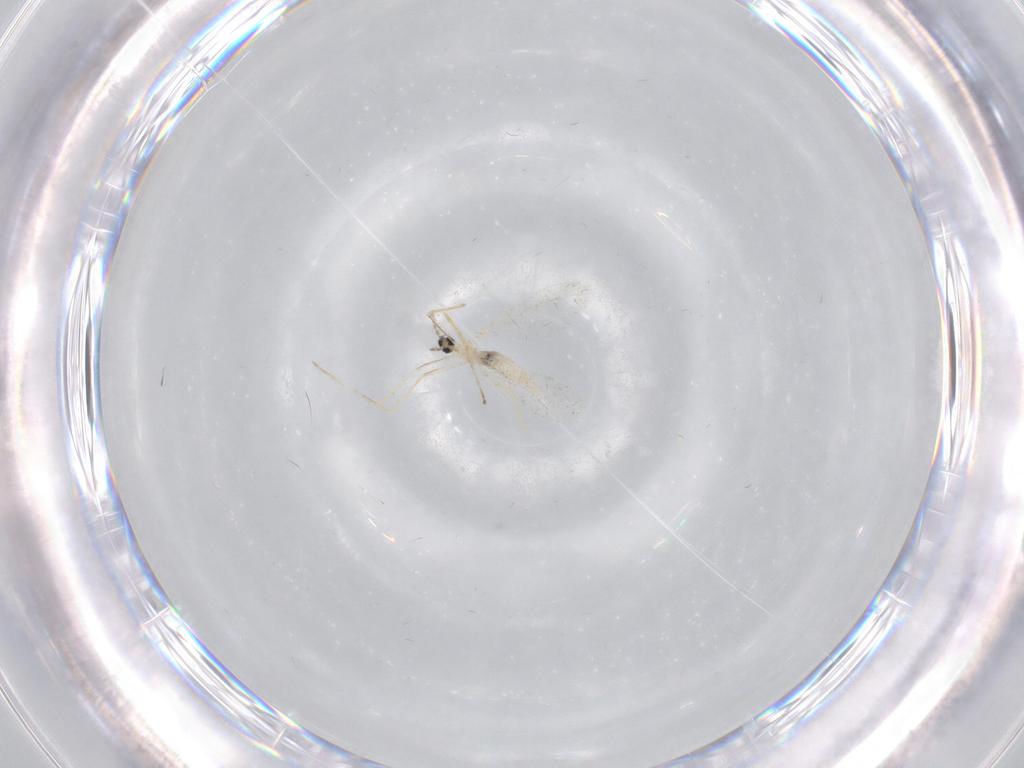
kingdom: Animalia
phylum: Arthropoda
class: Insecta
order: Diptera
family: Cecidomyiidae
